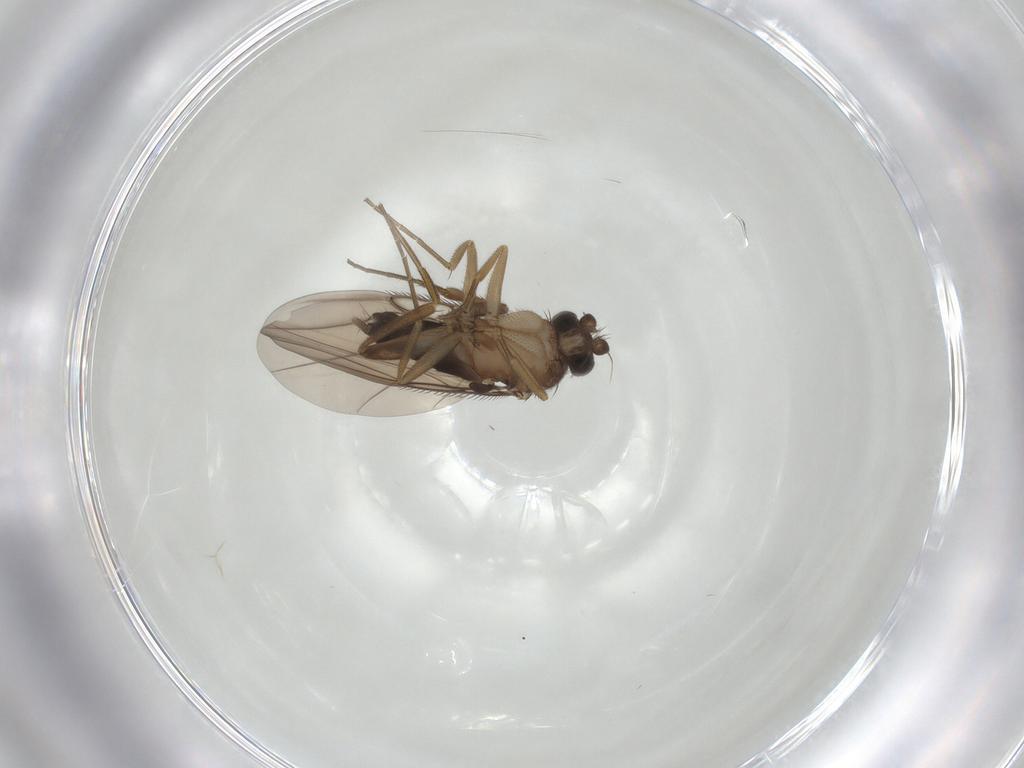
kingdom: Animalia
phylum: Arthropoda
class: Insecta
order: Diptera
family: Phoridae
